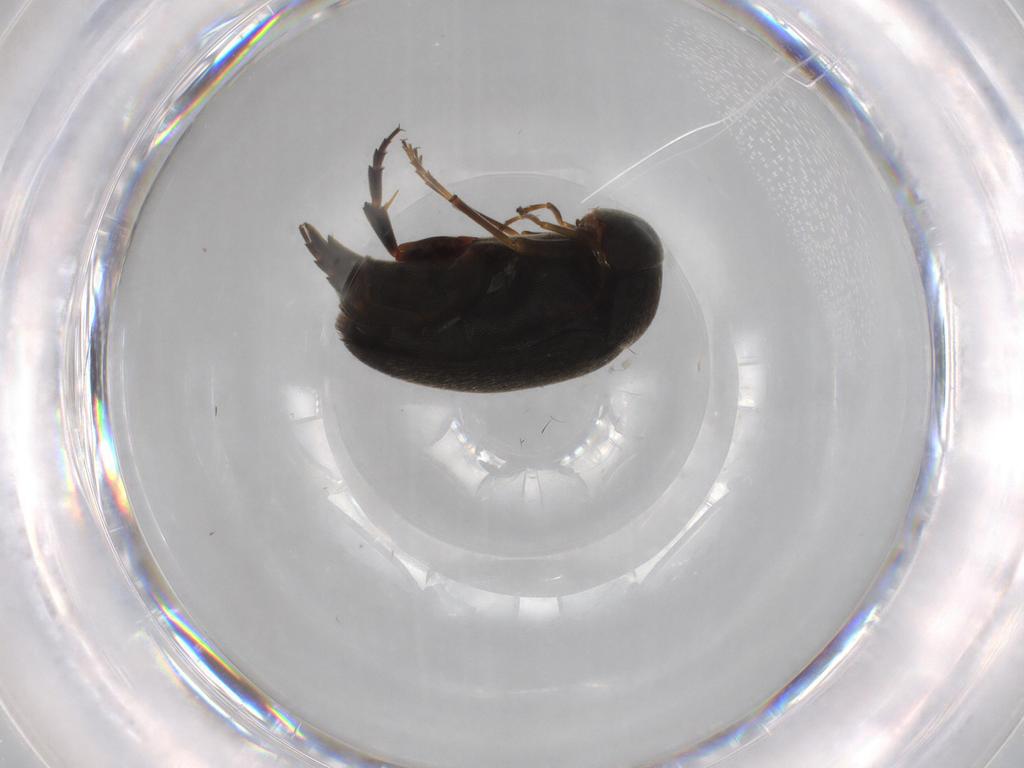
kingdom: Animalia
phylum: Arthropoda
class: Insecta
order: Coleoptera
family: Mordellidae
